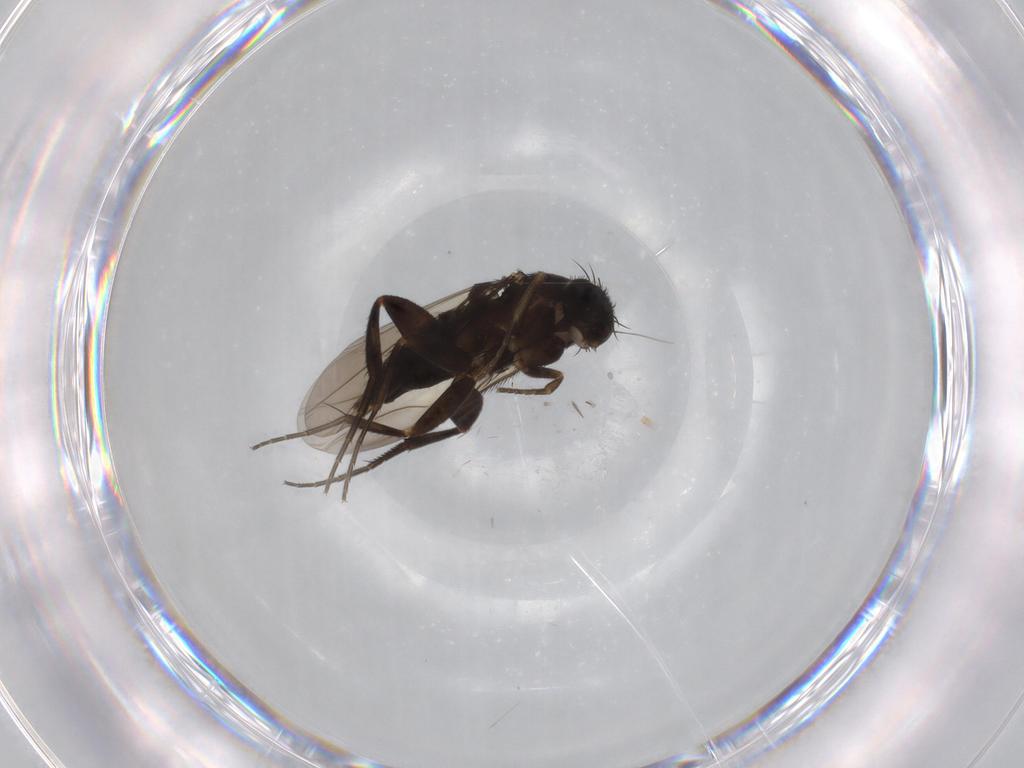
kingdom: Animalia
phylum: Arthropoda
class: Insecta
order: Diptera
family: Phoridae
